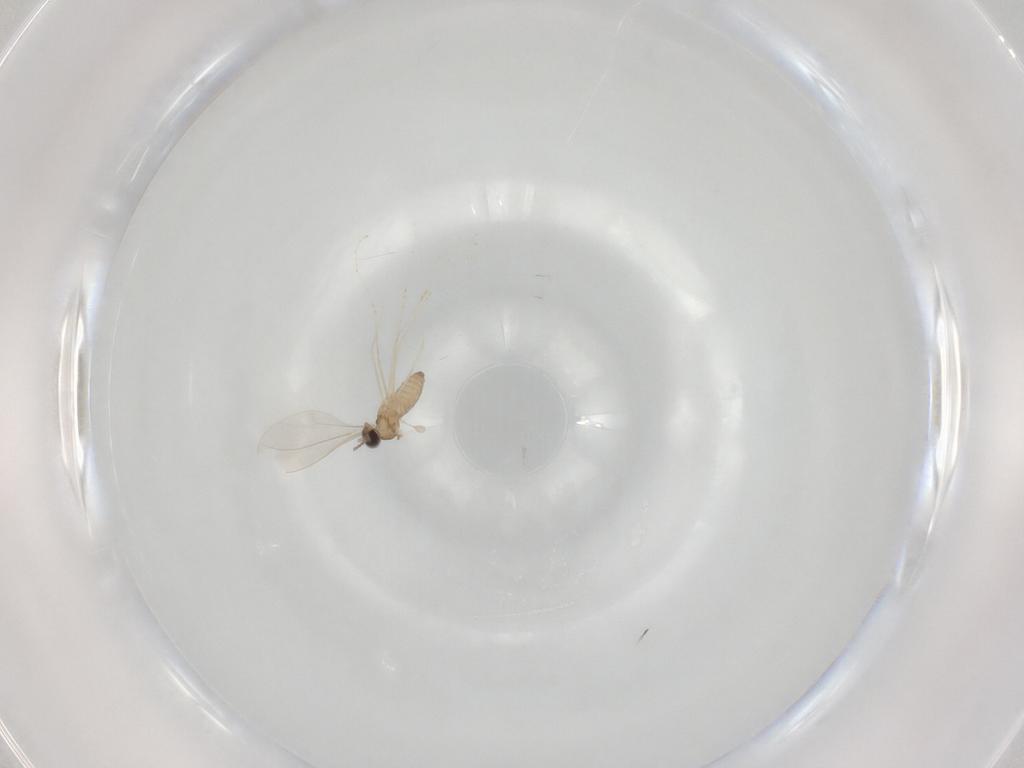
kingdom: Animalia
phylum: Arthropoda
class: Insecta
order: Diptera
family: Cecidomyiidae
